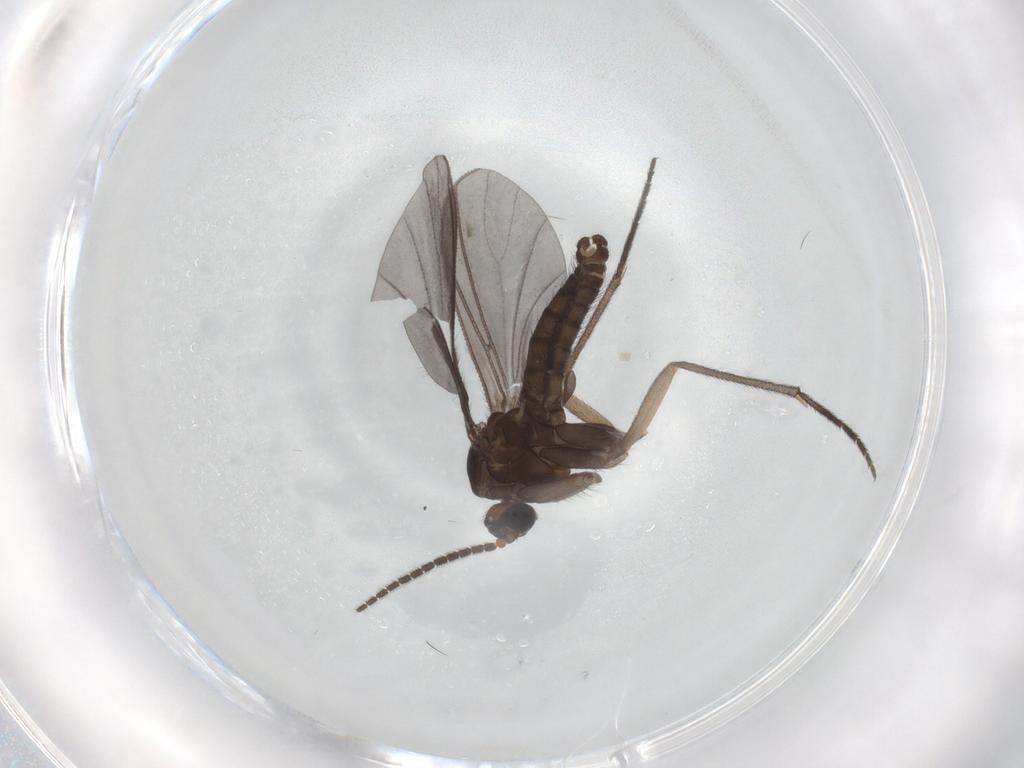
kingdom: Animalia
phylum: Arthropoda
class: Insecta
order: Diptera
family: Sciaridae
